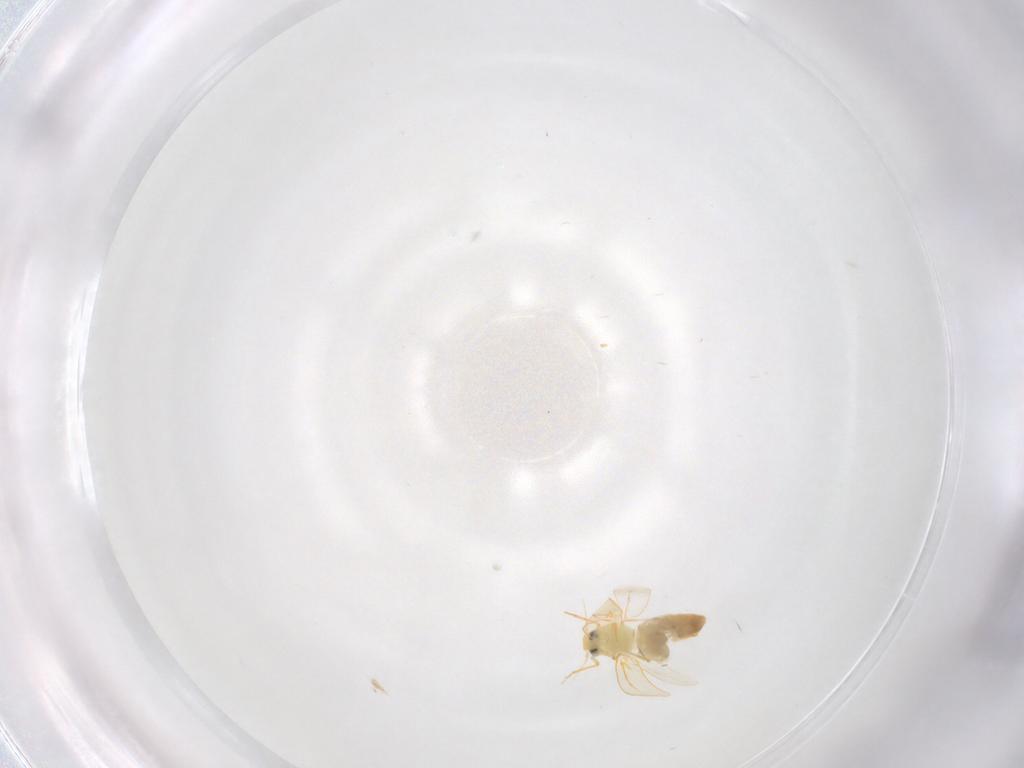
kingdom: Animalia
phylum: Arthropoda
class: Insecta
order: Hemiptera
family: Aleyrodidae
